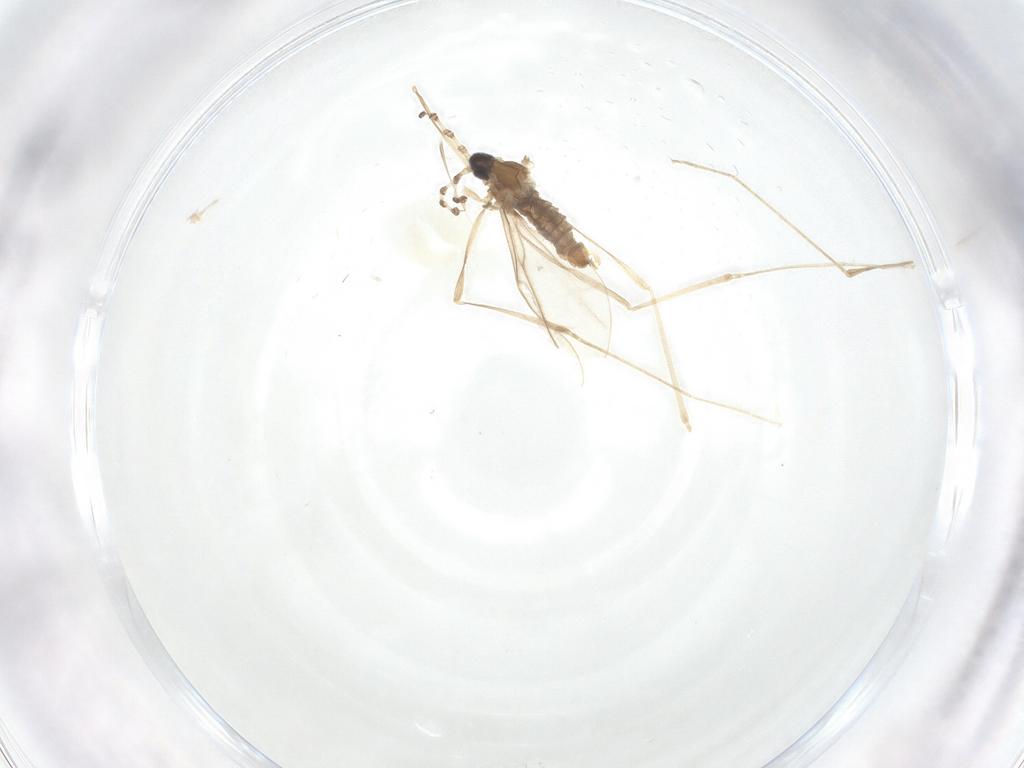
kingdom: Animalia
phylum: Arthropoda
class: Insecta
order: Diptera
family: Cecidomyiidae
